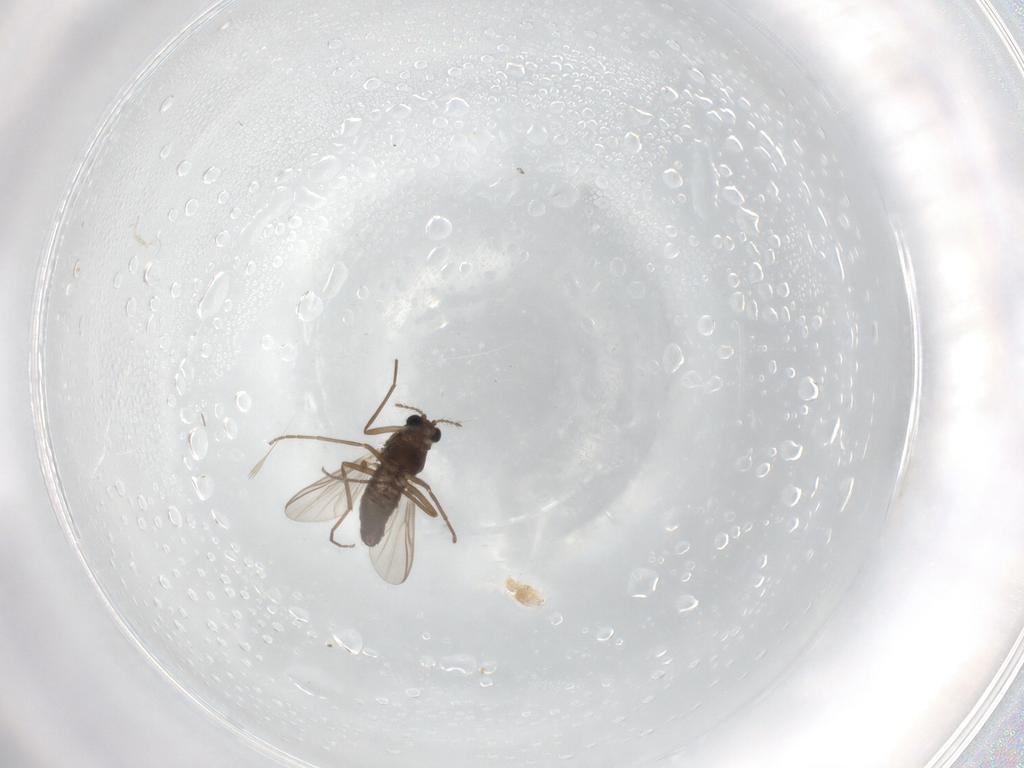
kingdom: Animalia
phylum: Arthropoda
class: Insecta
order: Diptera
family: Chironomidae
